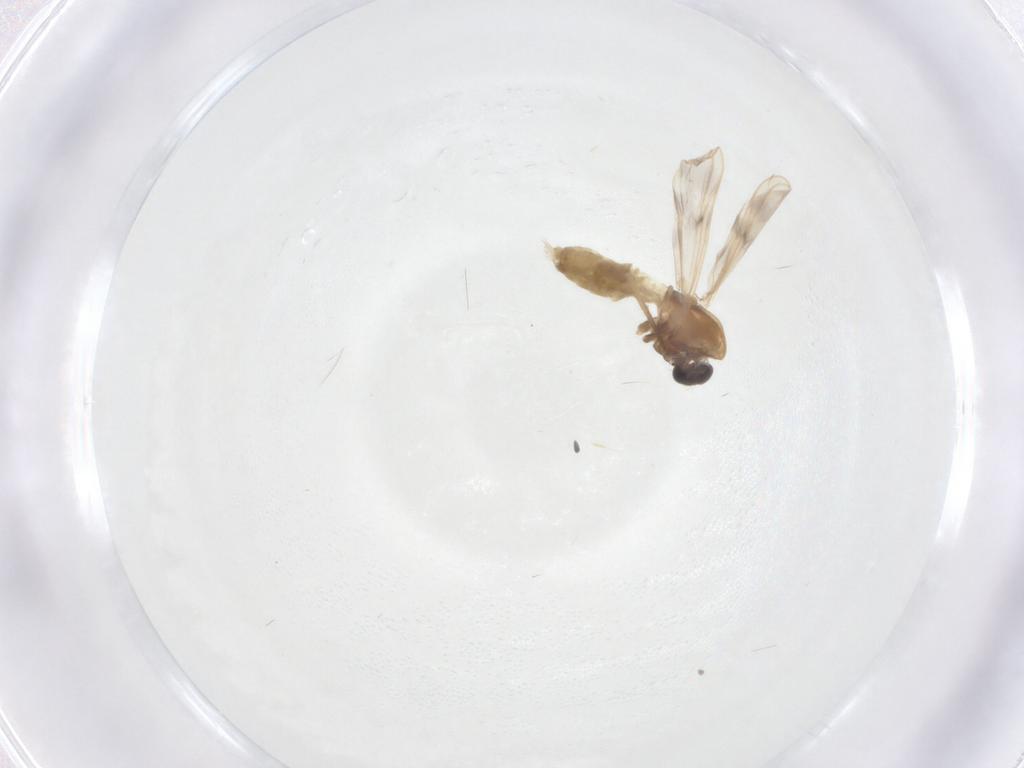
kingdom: Animalia
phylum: Arthropoda
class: Insecta
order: Diptera
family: Chironomidae
